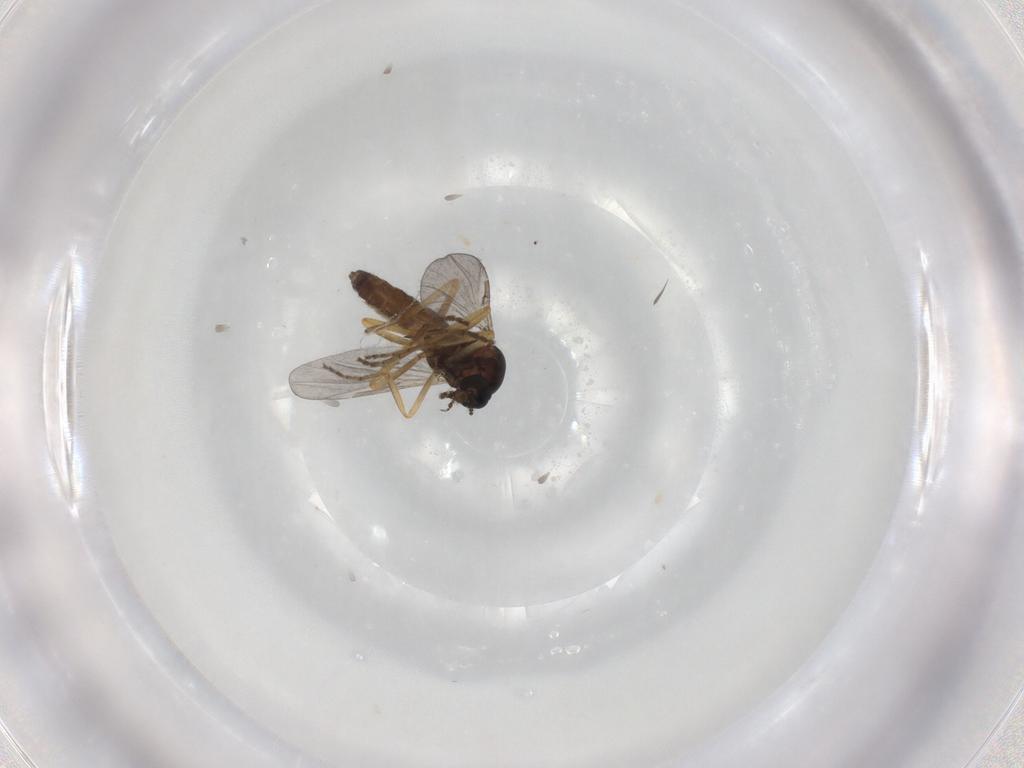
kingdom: Animalia
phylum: Arthropoda
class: Insecta
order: Diptera
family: Ceratopogonidae
